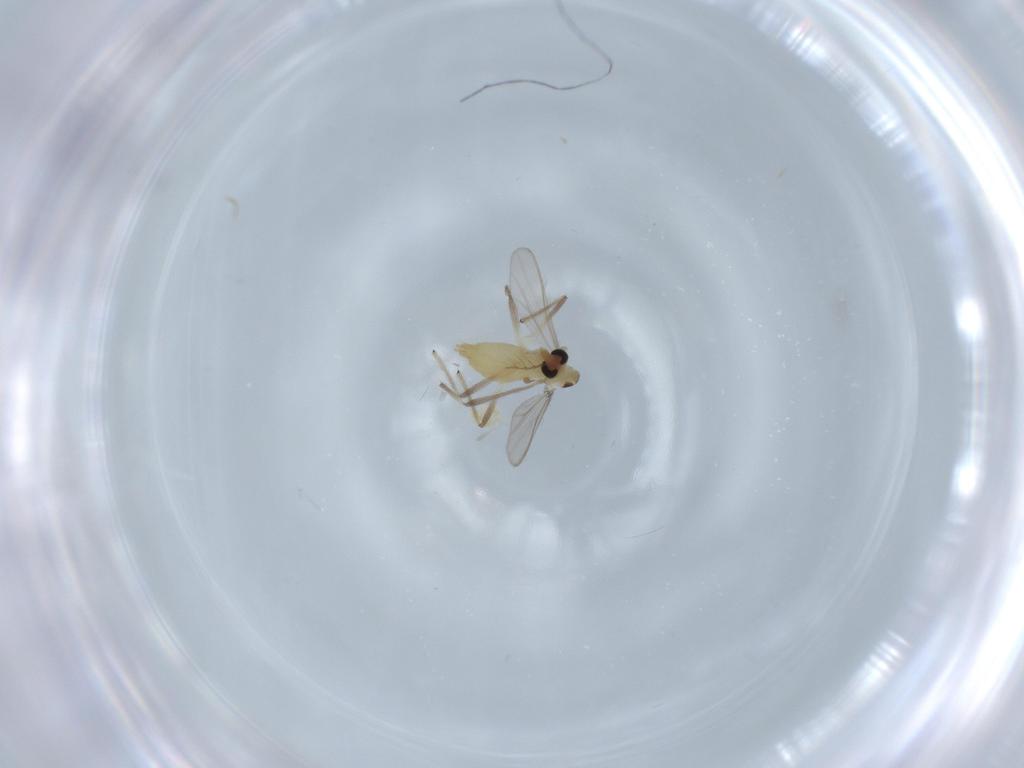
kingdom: Animalia
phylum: Arthropoda
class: Insecta
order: Diptera
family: Chironomidae
